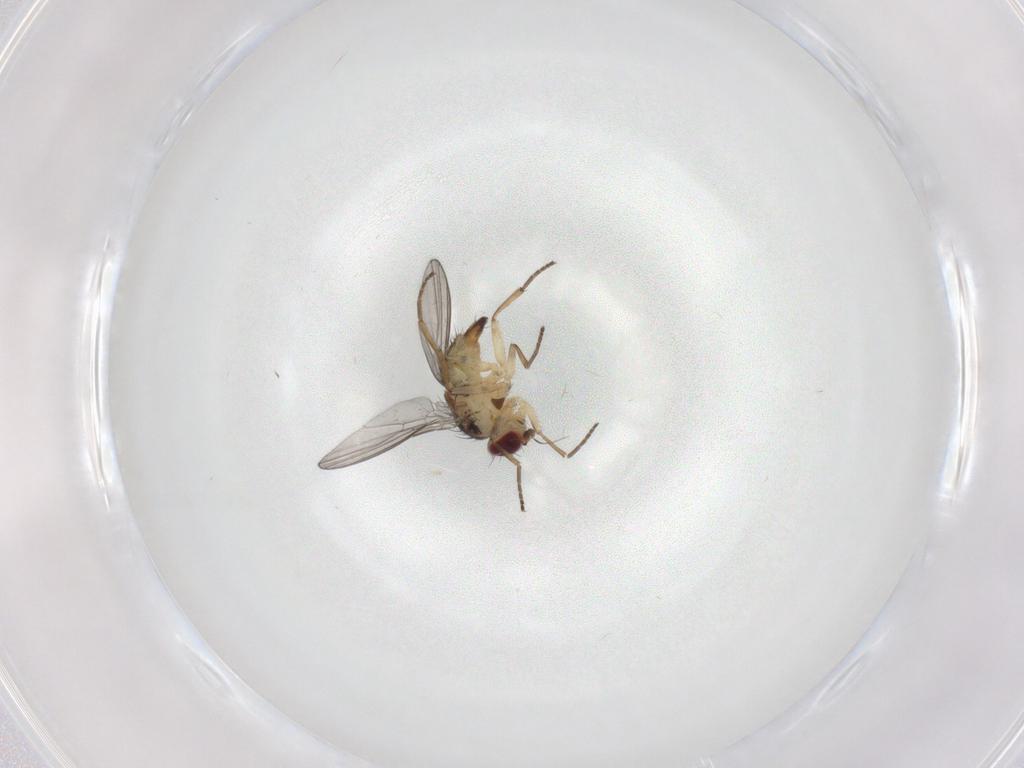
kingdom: Animalia
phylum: Arthropoda
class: Insecta
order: Diptera
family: Agromyzidae
